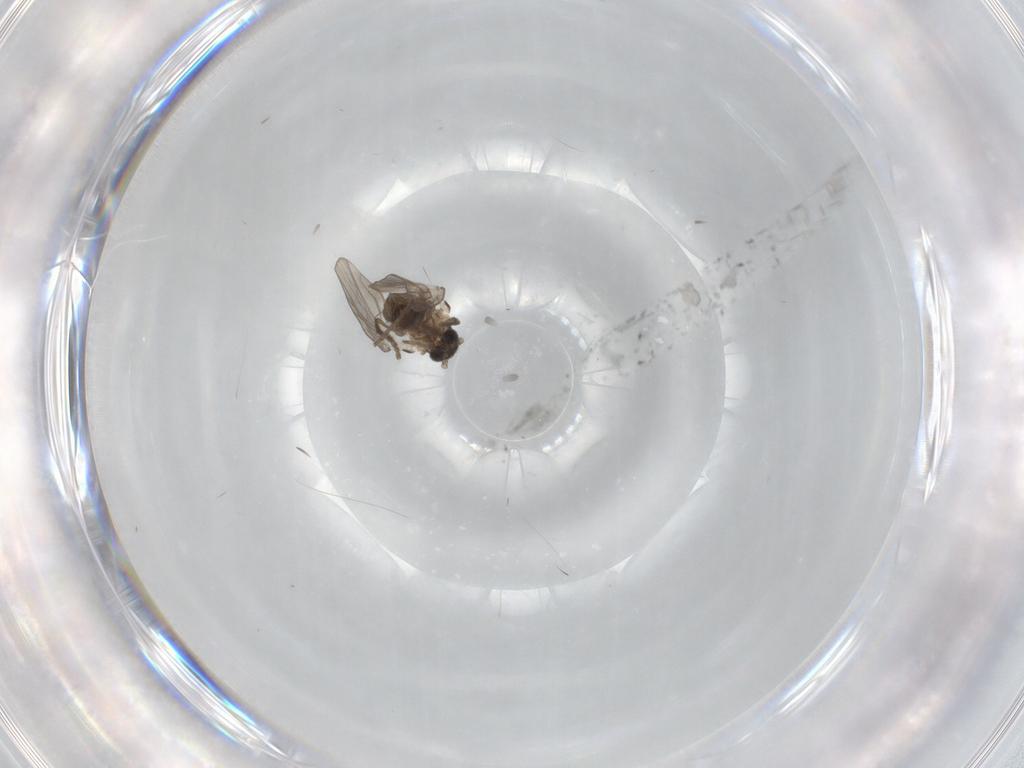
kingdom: Animalia
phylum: Arthropoda
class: Insecta
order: Diptera
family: Drosophilidae
